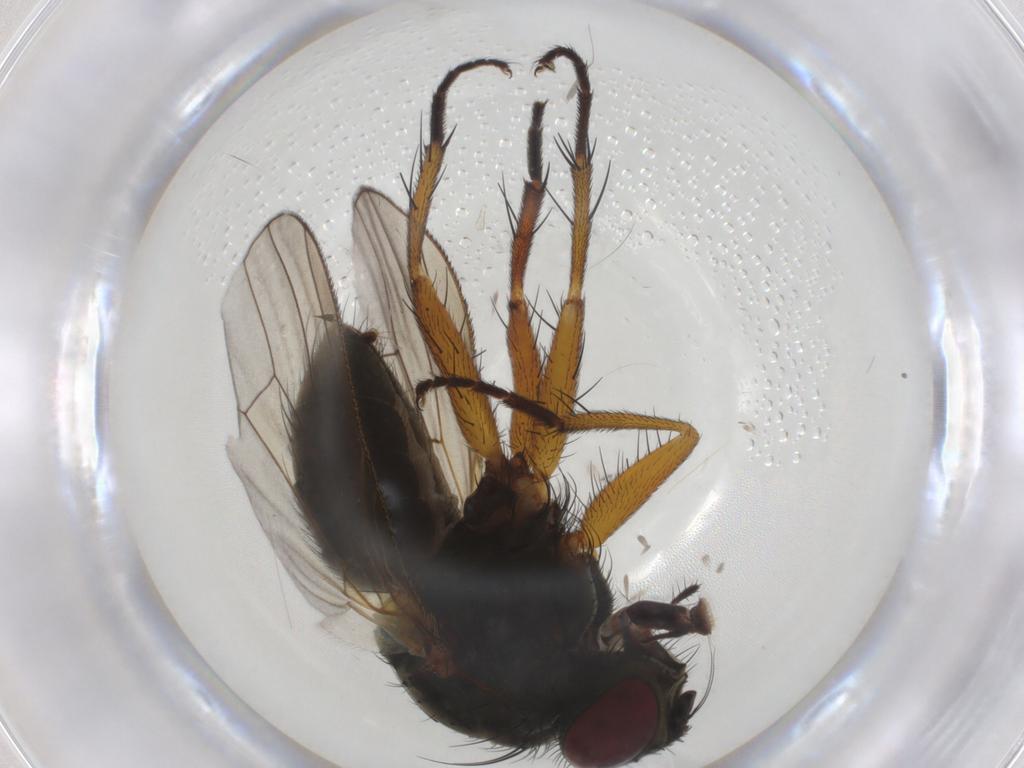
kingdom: Animalia
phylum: Arthropoda
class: Insecta
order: Diptera
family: Muscidae
